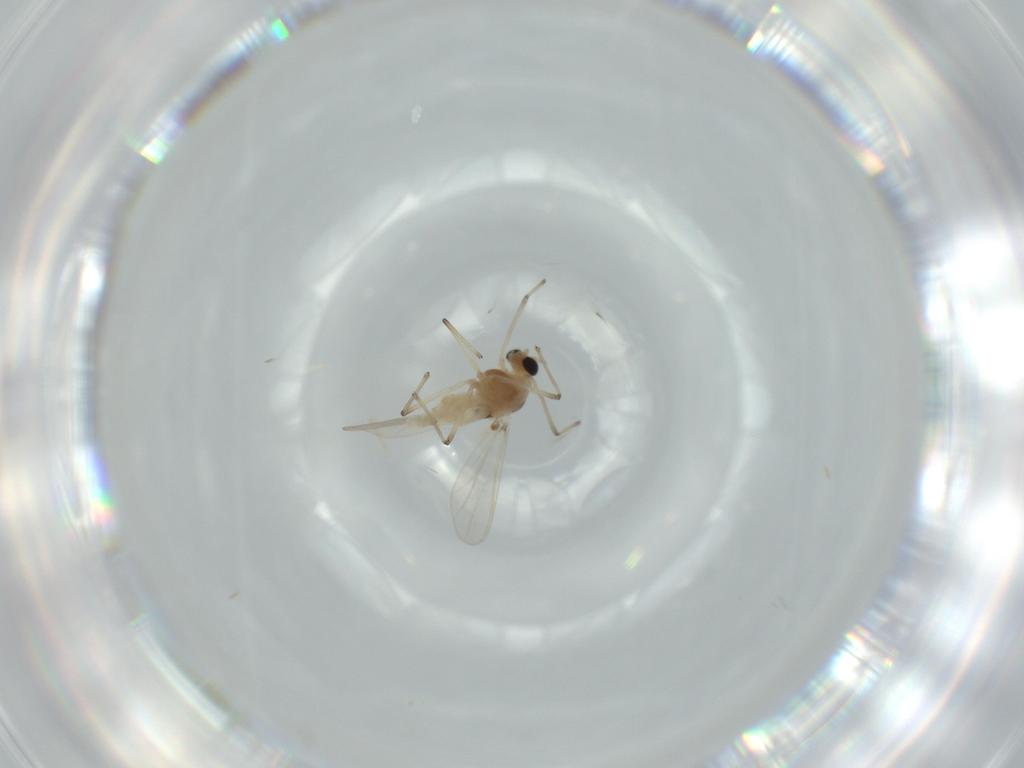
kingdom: Animalia
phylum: Arthropoda
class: Insecta
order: Diptera
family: Chironomidae
